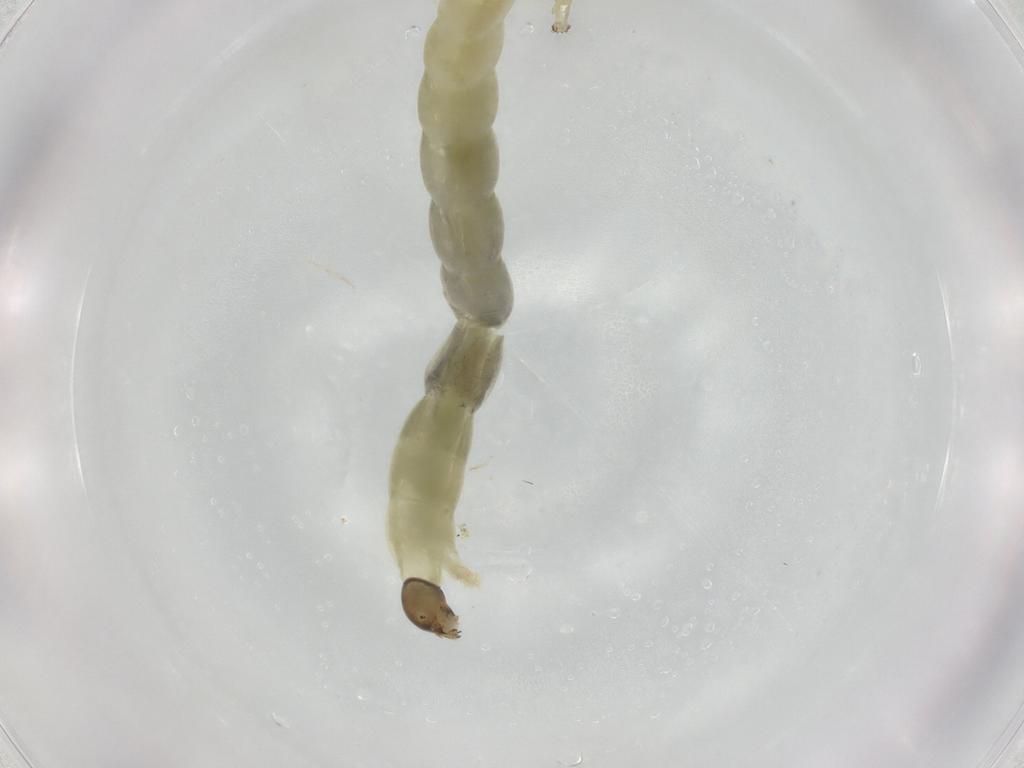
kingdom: Animalia
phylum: Arthropoda
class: Insecta
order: Diptera
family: Chironomidae
